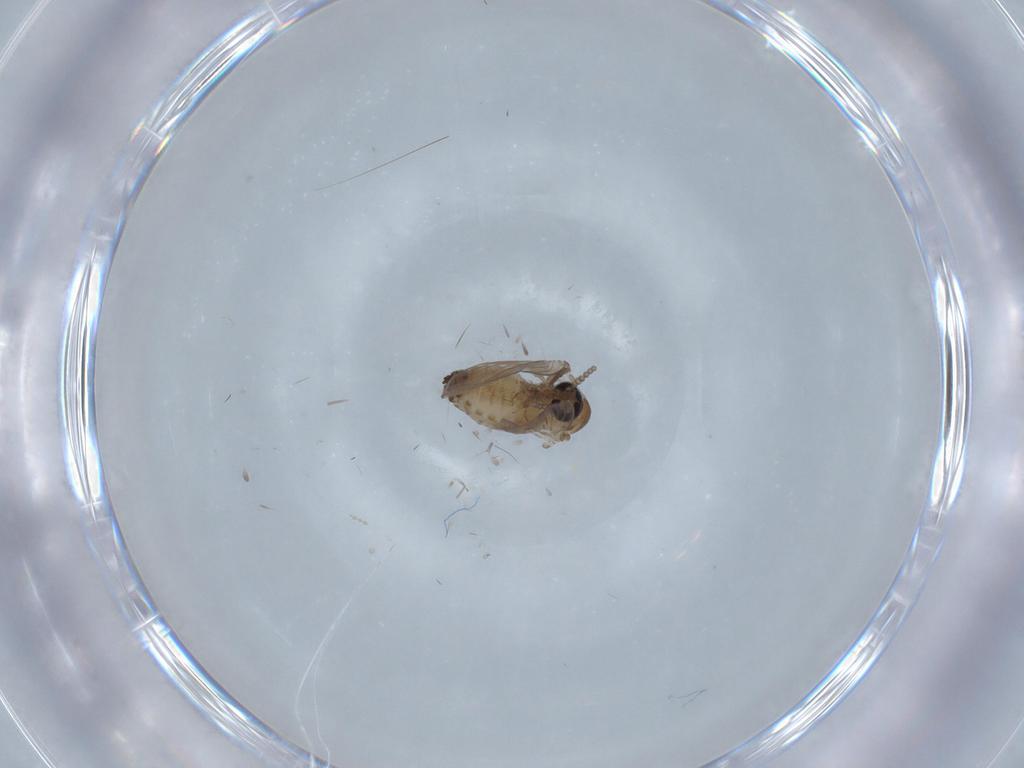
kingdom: Animalia
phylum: Arthropoda
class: Insecta
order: Diptera
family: Psychodidae
